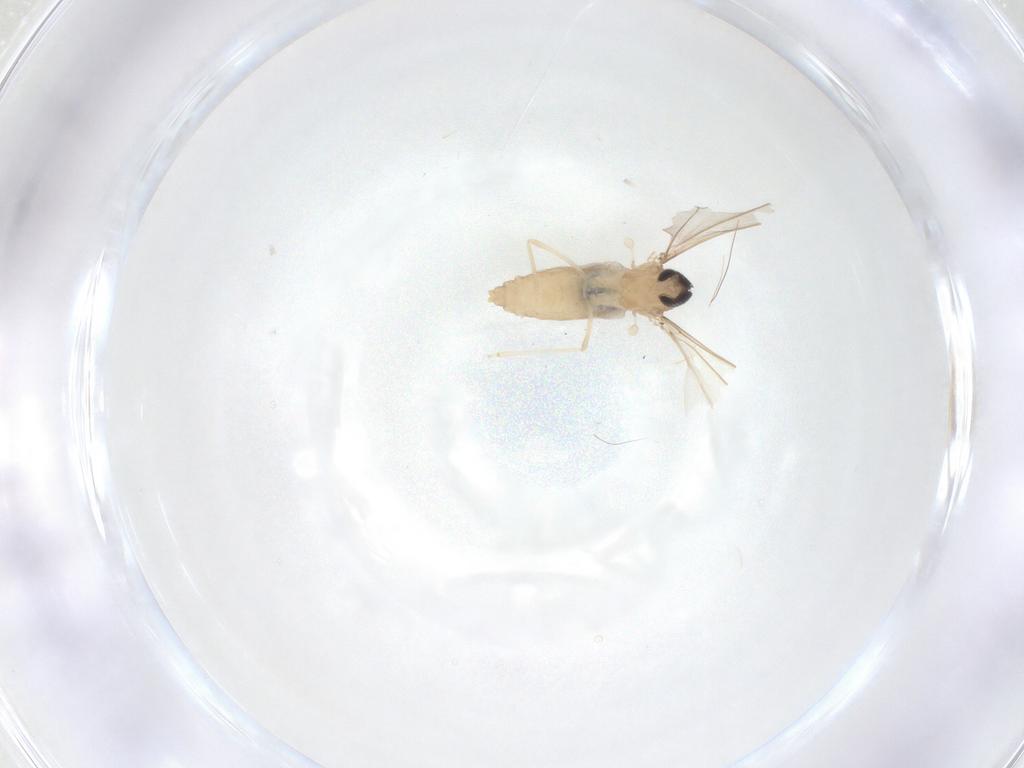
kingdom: Animalia
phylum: Arthropoda
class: Insecta
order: Diptera
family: Cecidomyiidae
